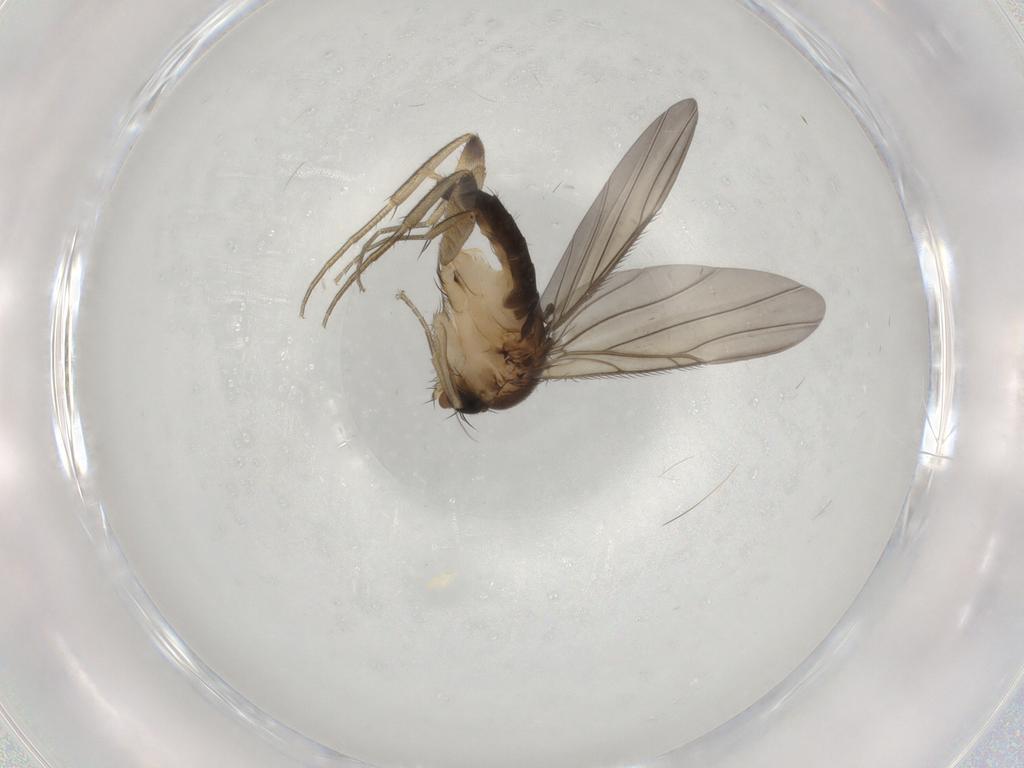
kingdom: Animalia
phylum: Arthropoda
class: Insecta
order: Diptera
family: Phoridae
